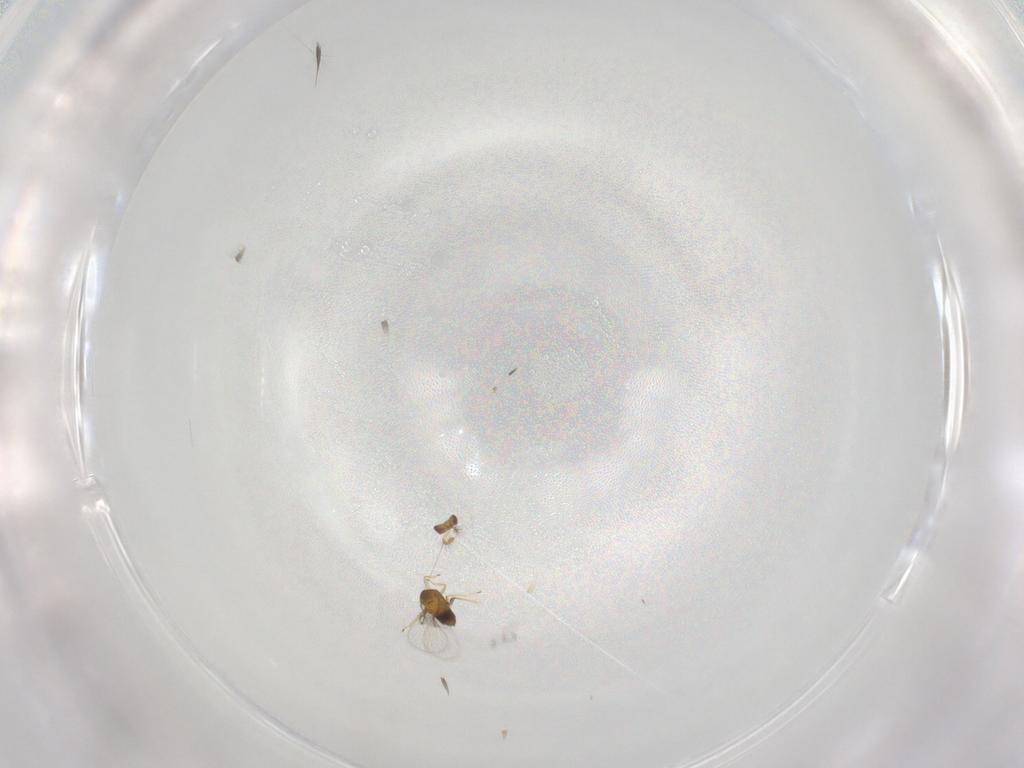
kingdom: Animalia
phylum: Arthropoda
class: Insecta
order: Hymenoptera
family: Trichogrammatidae
